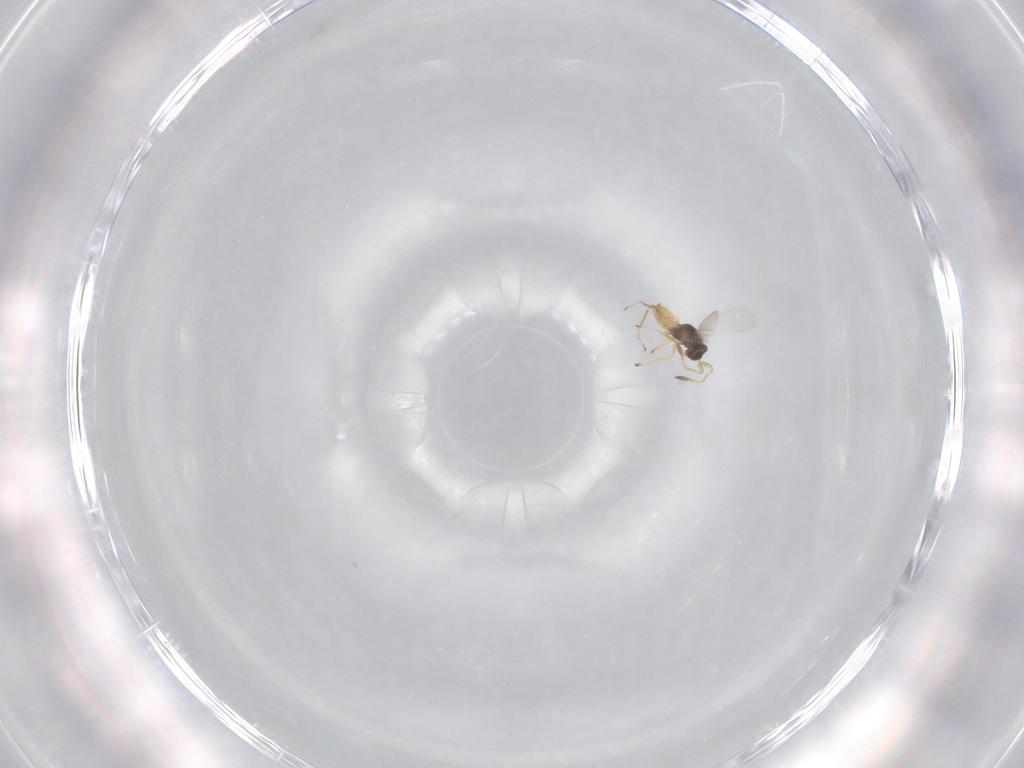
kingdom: Animalia
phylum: Arthropoda
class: Insecta
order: Hymenoptera
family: Mymaridae
